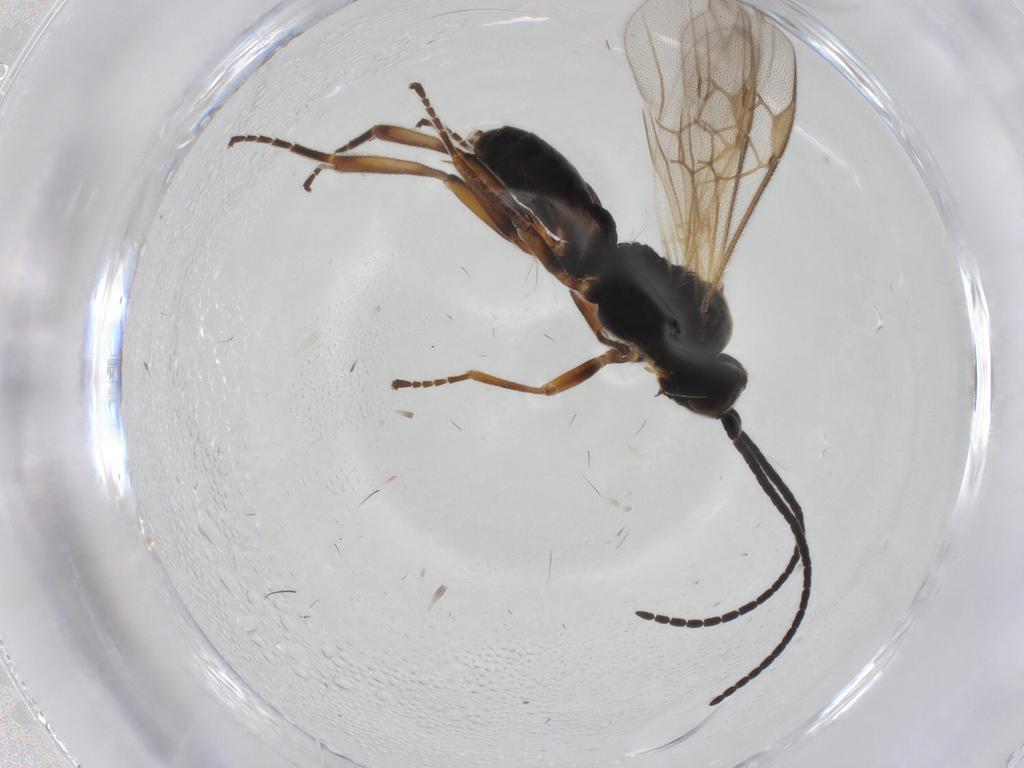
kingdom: Animalia
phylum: Arthropoda
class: Insecta
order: Hymenoptera
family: Braconidae
